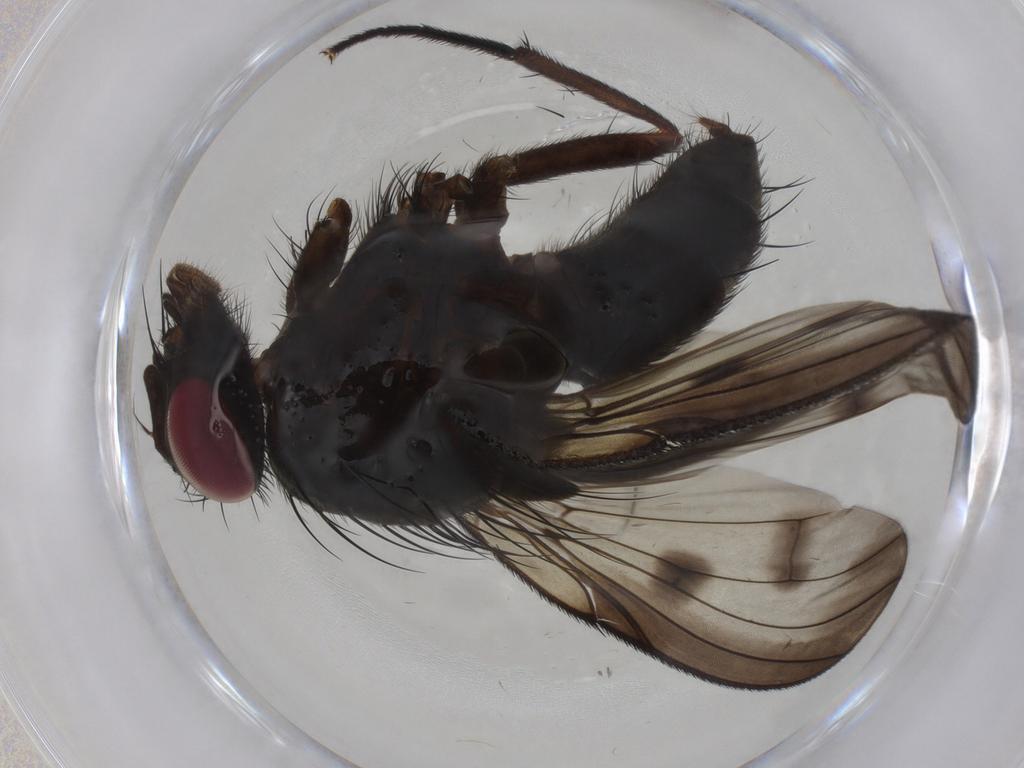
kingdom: Animalia
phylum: Arthropoda
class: Insecta
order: Diptera
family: Muscidae
